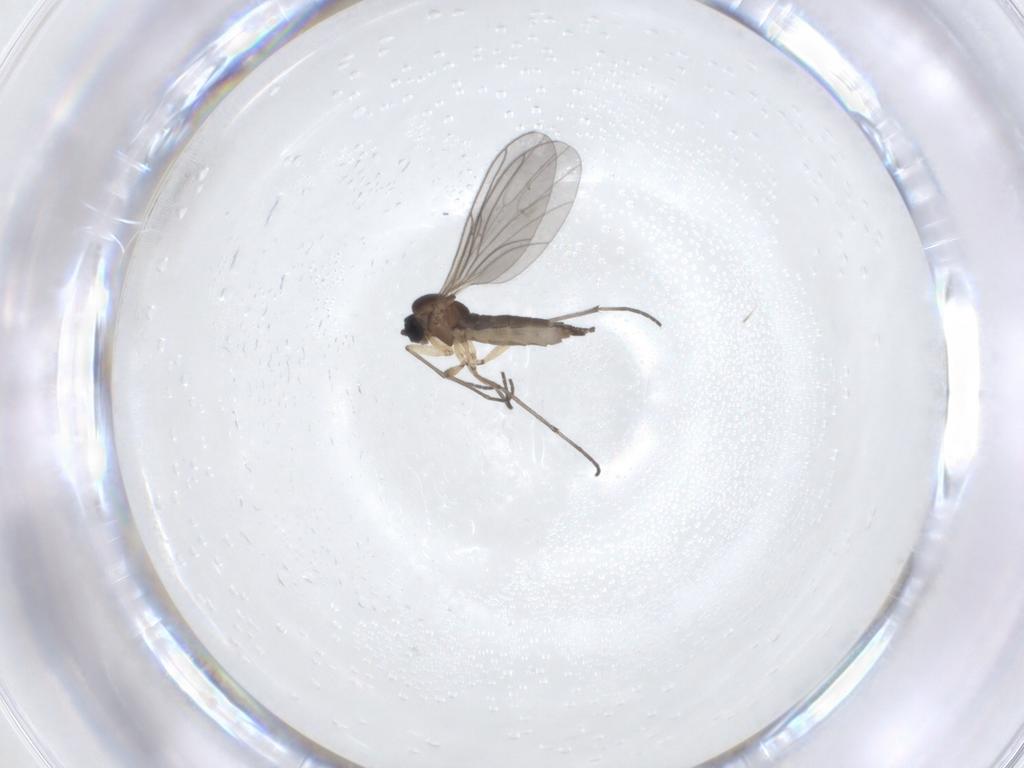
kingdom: Animalia
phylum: Arthropoda
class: Insecta
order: Diptera
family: Sciaridae
